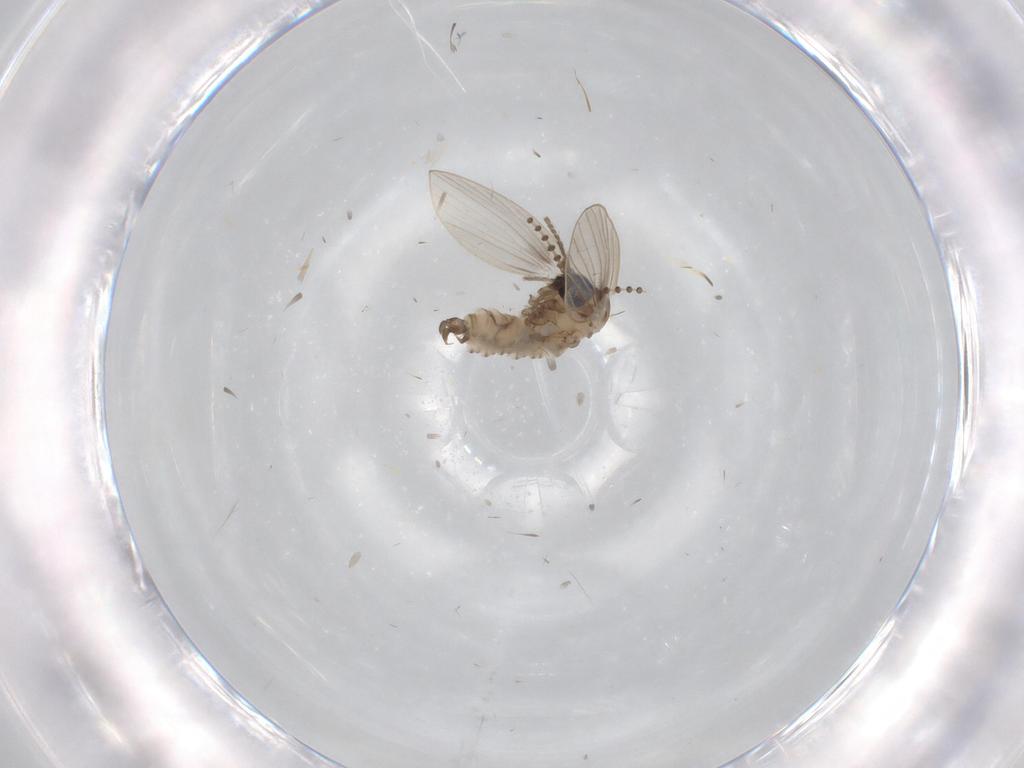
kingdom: Animalia
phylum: Arthropoda
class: Insecta
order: Diptera
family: Psychodidae
